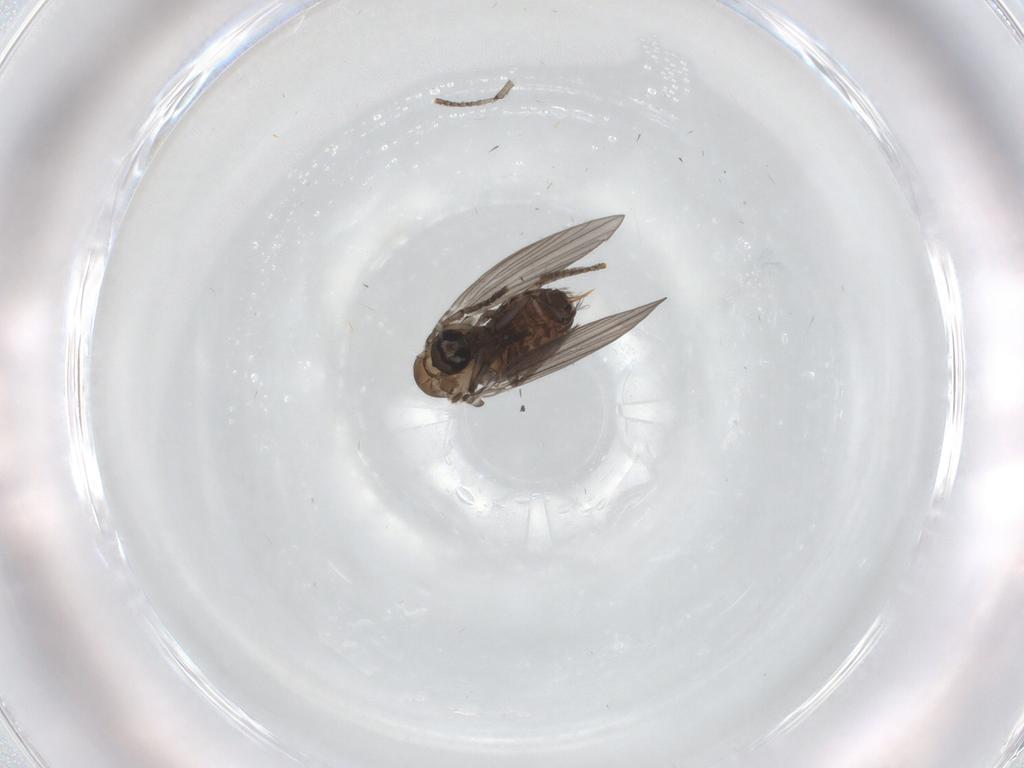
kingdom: Animalia
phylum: Arthropoda
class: Insecta
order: Diptera
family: Psychodidae
